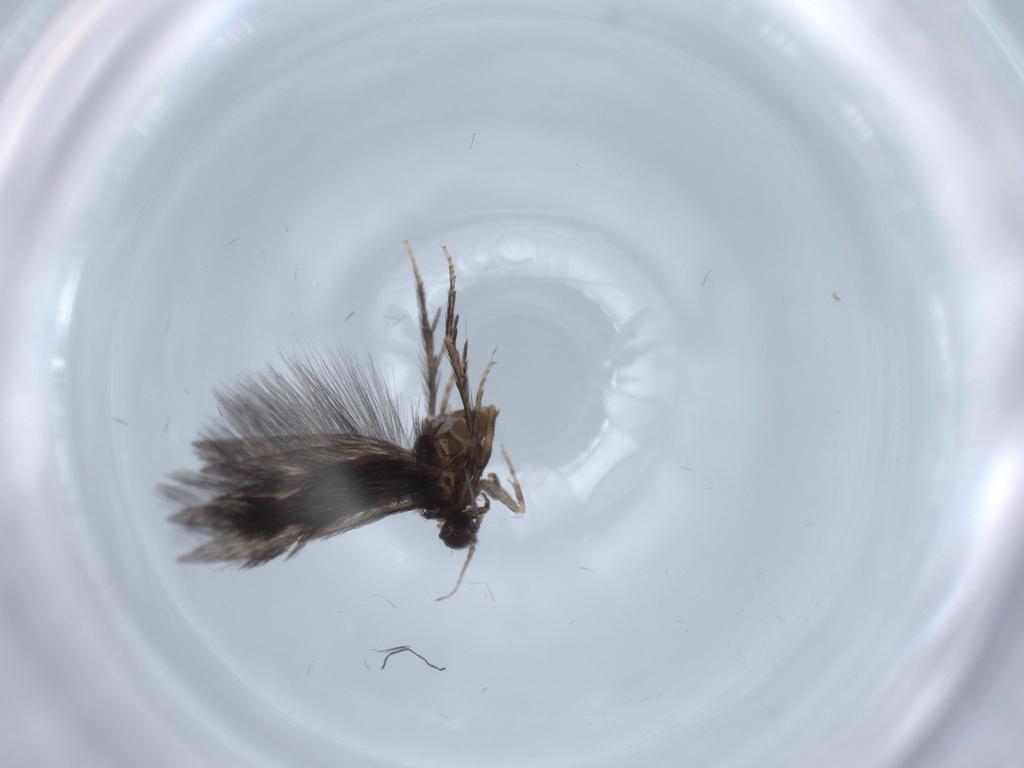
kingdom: Animalia
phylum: Arthropoda
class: Insecta
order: Trichoptera
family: Hydroptilidae
